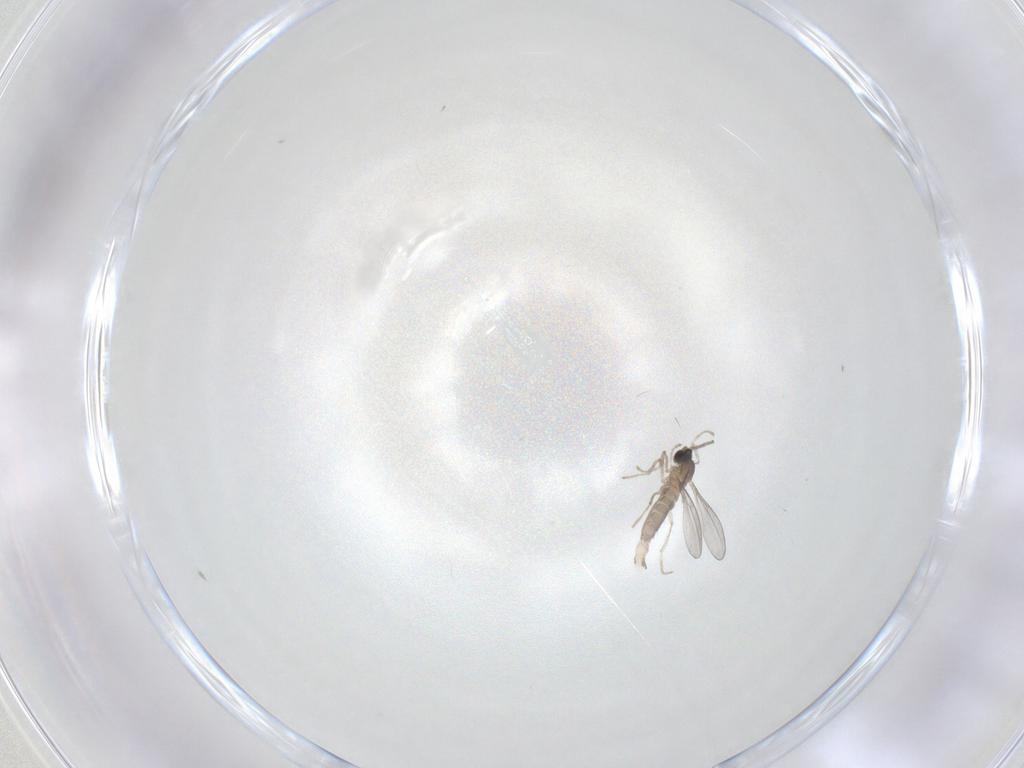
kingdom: Animalia
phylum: Arthropoda
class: Insecta
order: Diptera
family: Cecidomyiidae
